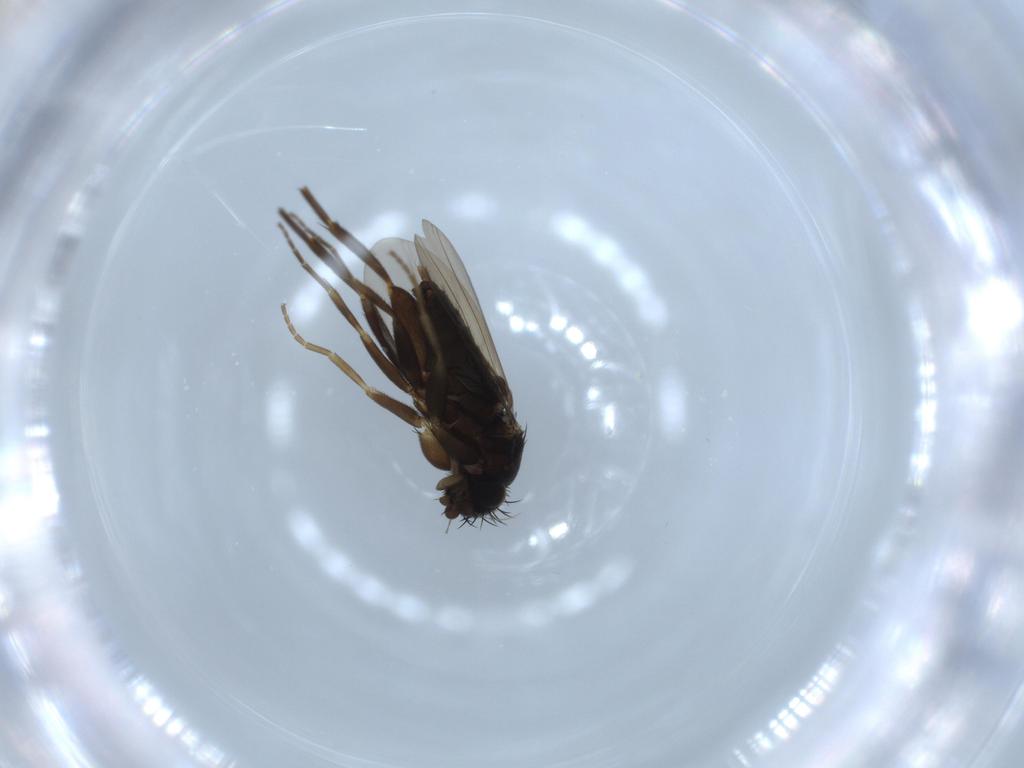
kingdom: Animalia
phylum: Arthropoda
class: Insecta
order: Diptera
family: Phoridae
